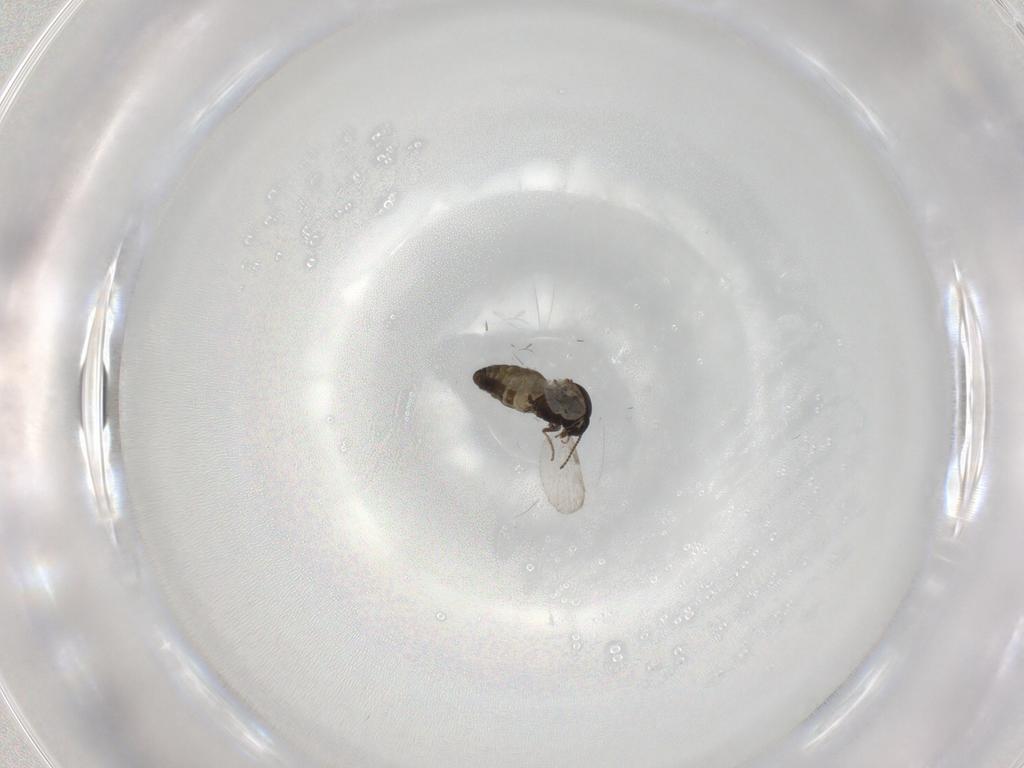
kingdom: Animalia
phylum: Arthropoda
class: Insecta
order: Diptera
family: Ceratopogonidae
